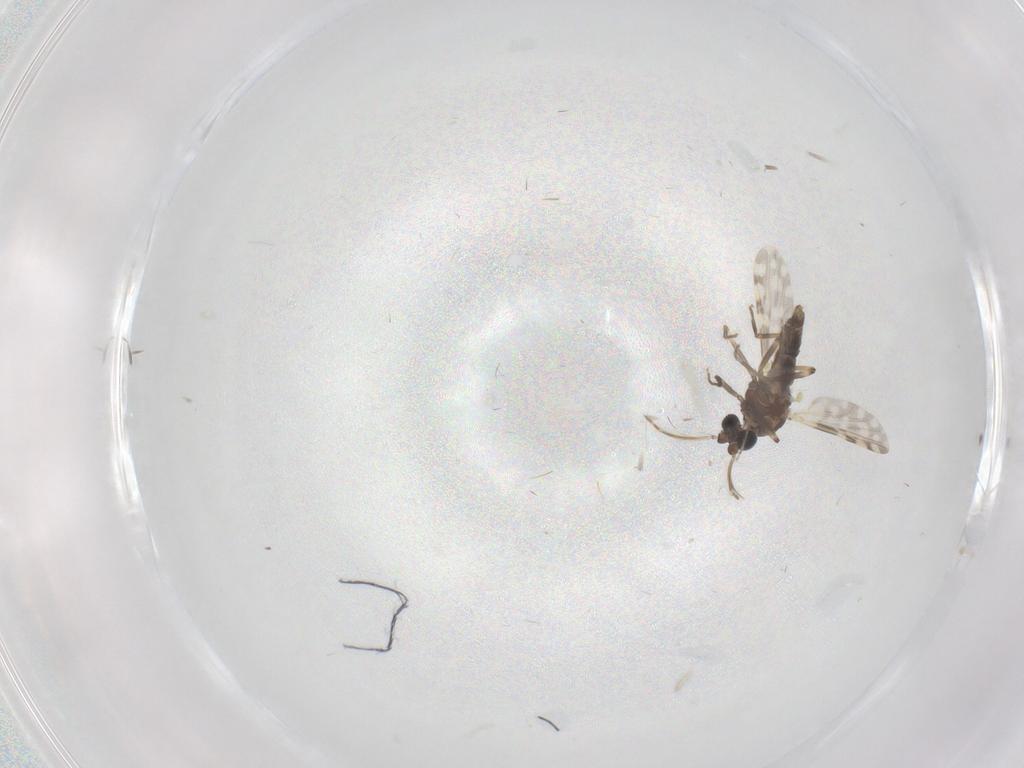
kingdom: Animalia
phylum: Arthropoda
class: Insecta
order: Diptera
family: Ceratopogonidae
